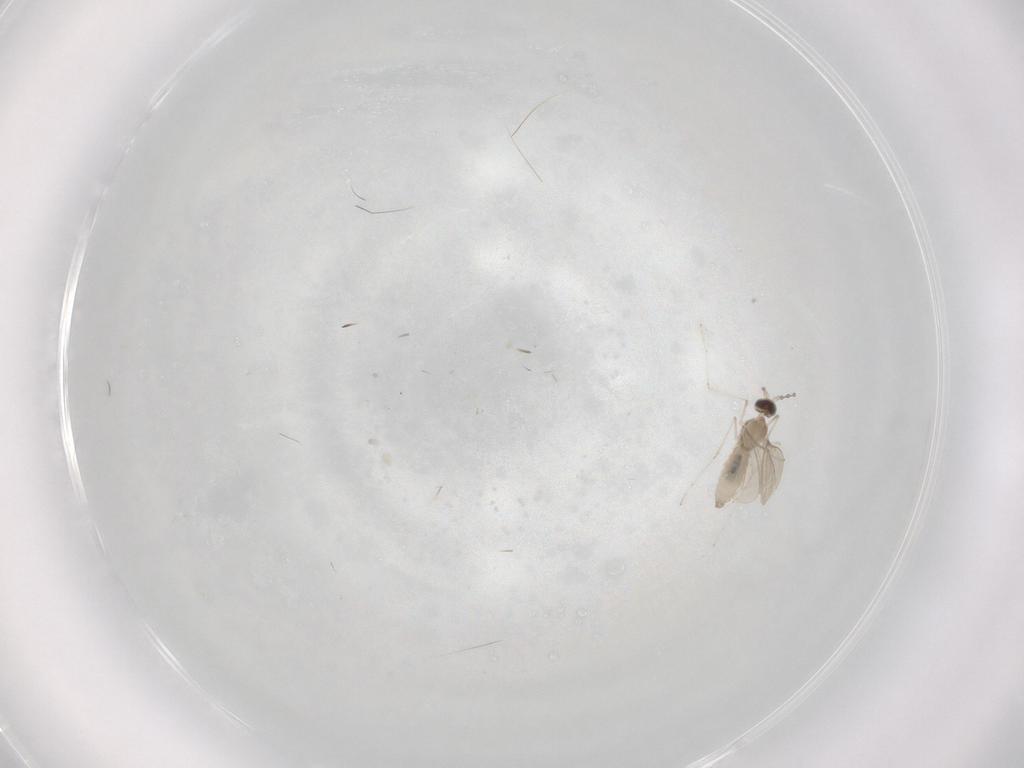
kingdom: Animalia
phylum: Arthropoda
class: Insecta
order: Diptera
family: Cecidomyiidae
